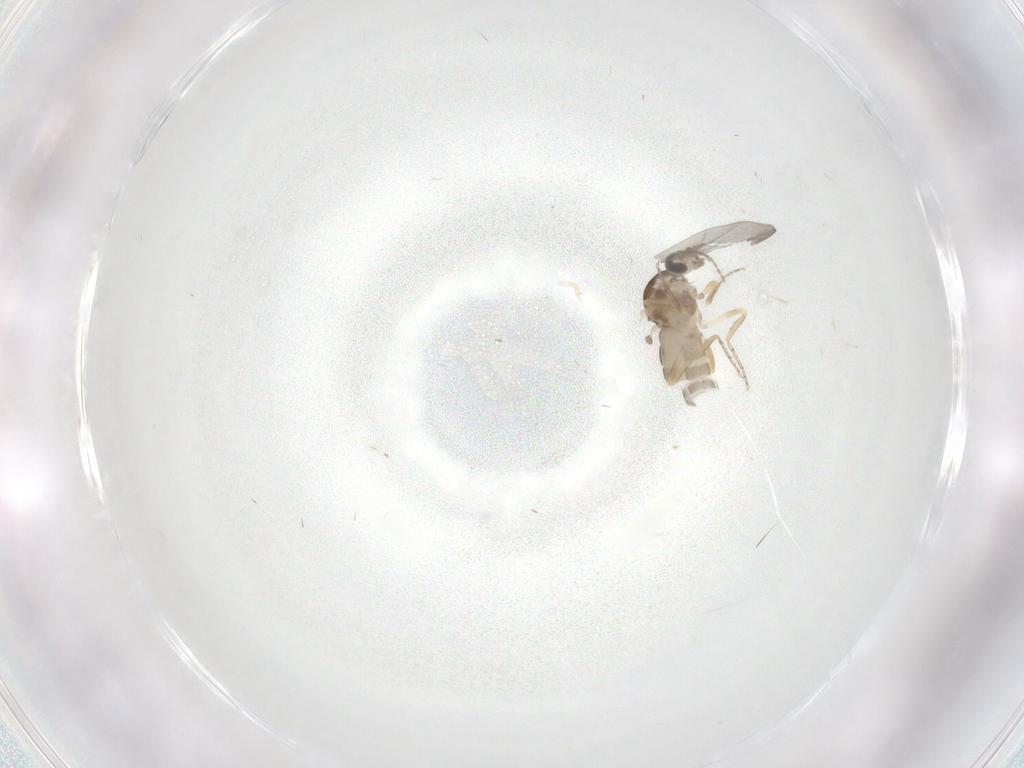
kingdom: Animalia
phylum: Arthropoda
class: Insecta
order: Diptera
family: Ceratopogonidae
